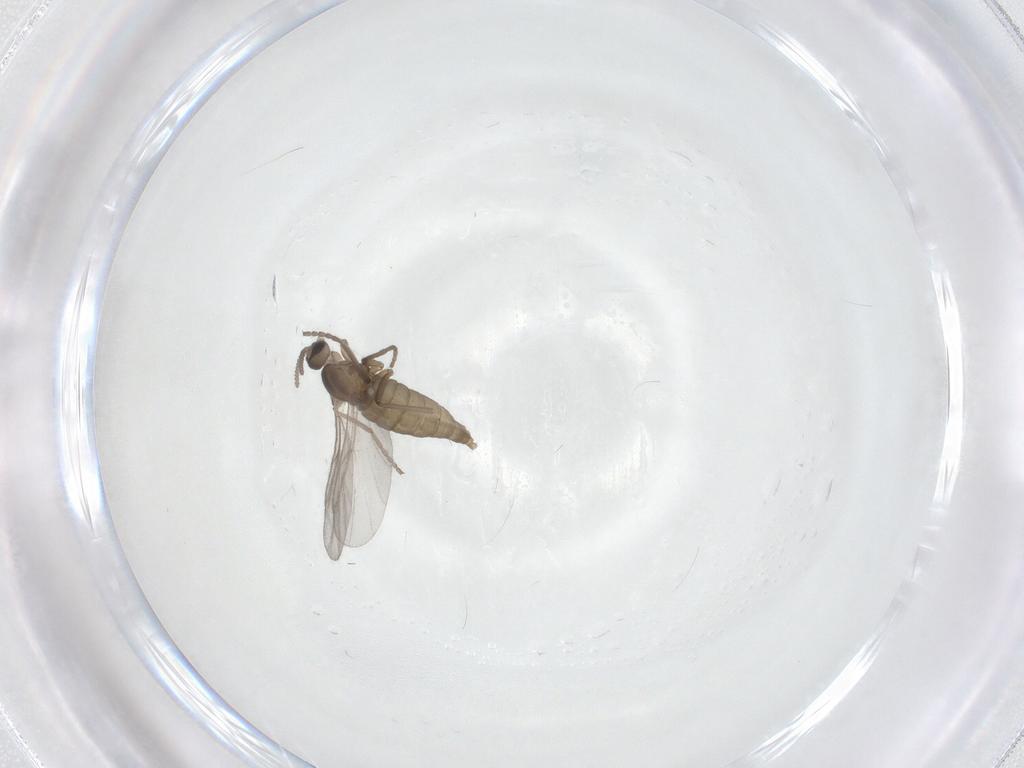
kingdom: Animalia
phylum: Arthropoda
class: Insecta
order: Diptera
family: Cecidomyiidae
